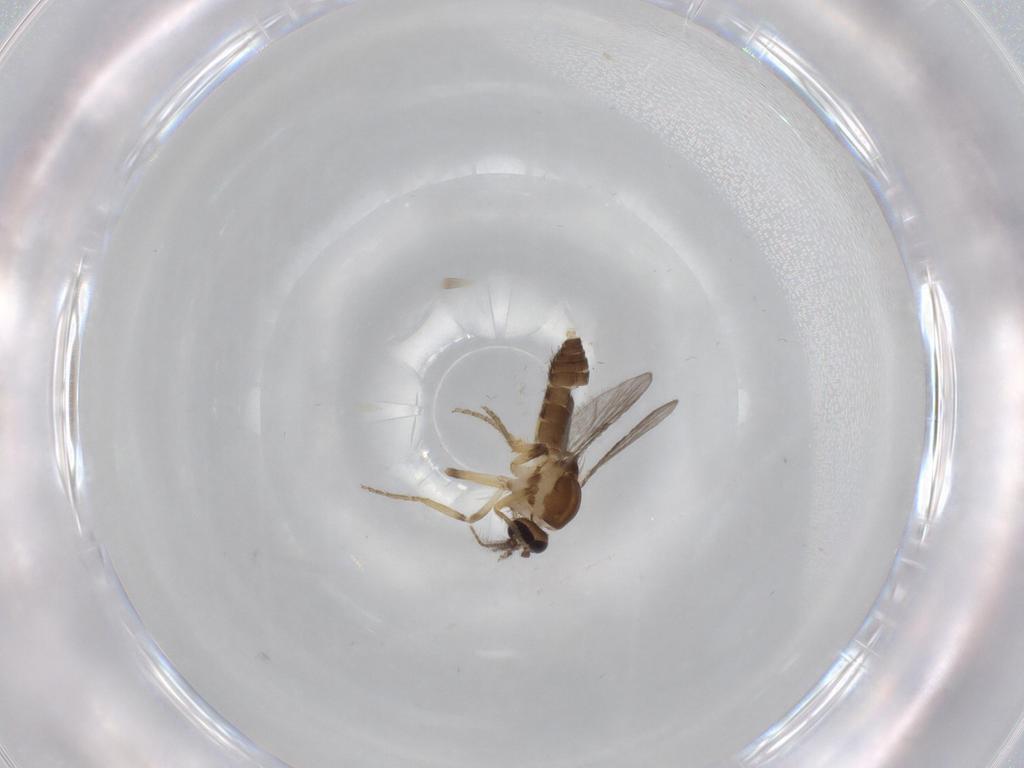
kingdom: Animalia
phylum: Arthropoda
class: Insecta
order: Diptera
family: Ceratopogonidae
